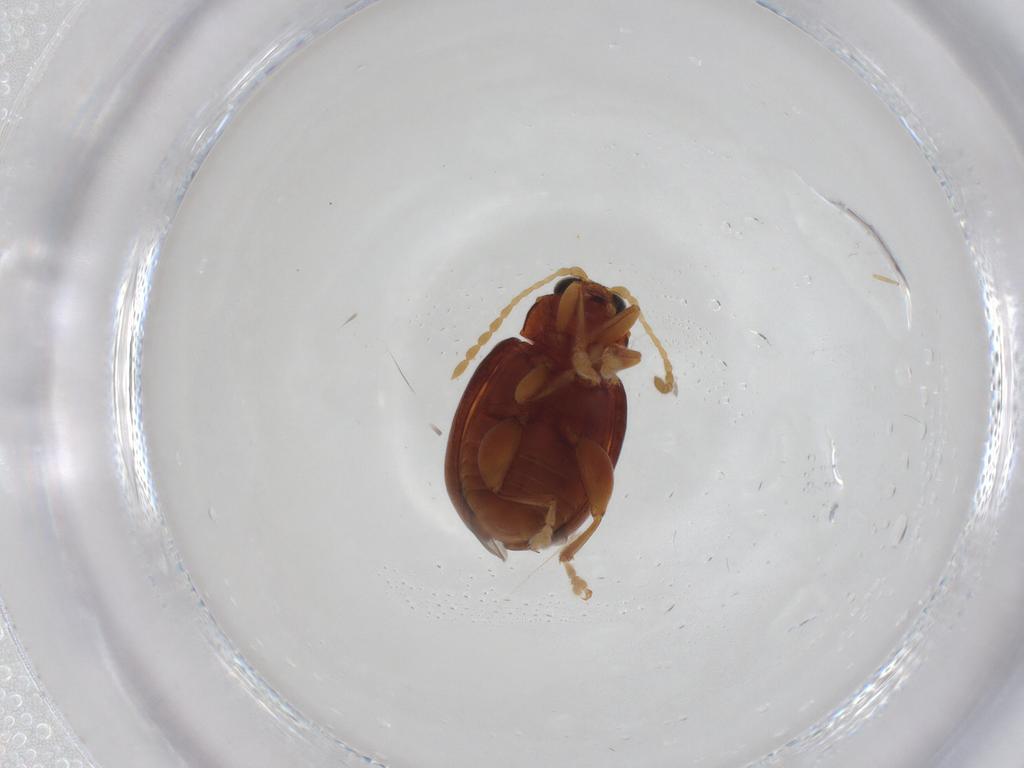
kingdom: Animalia
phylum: Arthropoda
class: Insecta
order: Coleoptera
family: Chrysomelidae
